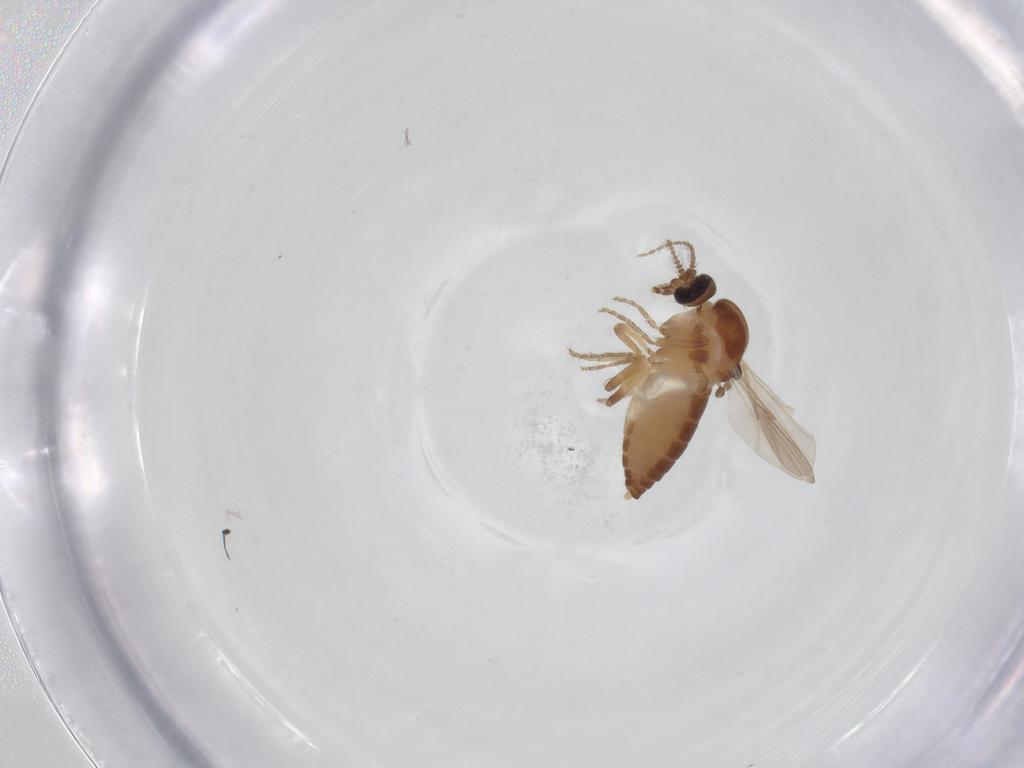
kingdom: Animalia
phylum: Arthropoda
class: Insecta
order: Diptera
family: Ceratopogonidae
